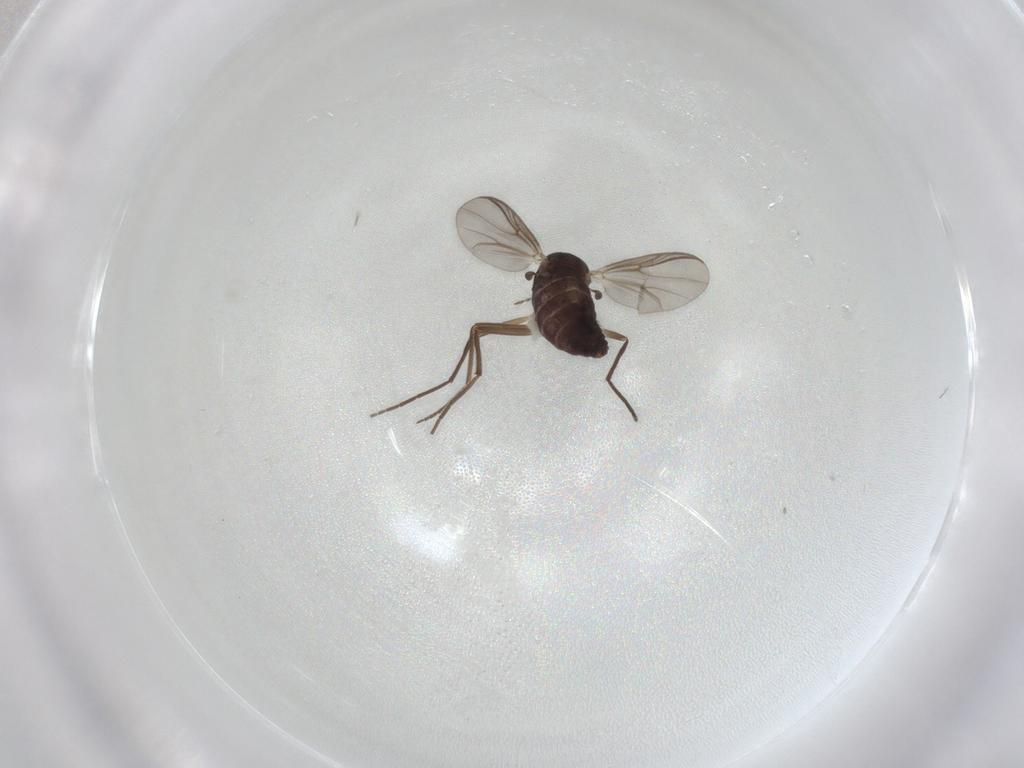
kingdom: Animalia
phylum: Arthropoda
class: Insecta
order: Diptera
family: Chironomidae
